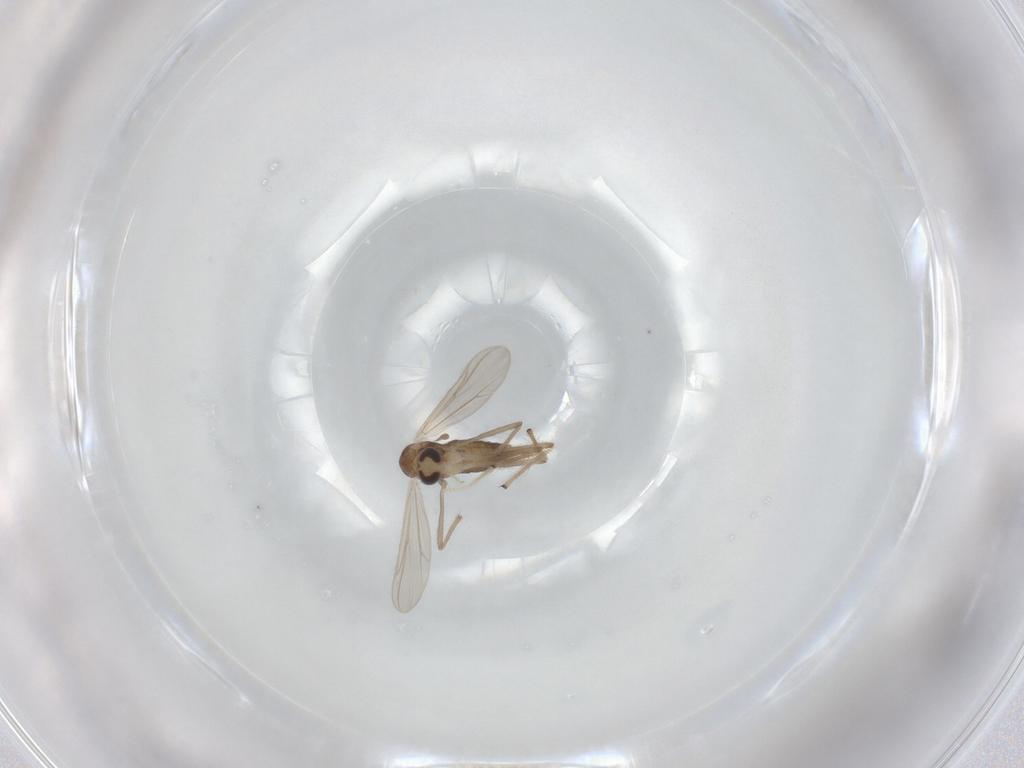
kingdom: Animalia
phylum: Arthropoda
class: Insecta
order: Diptera
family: Chironomidae
